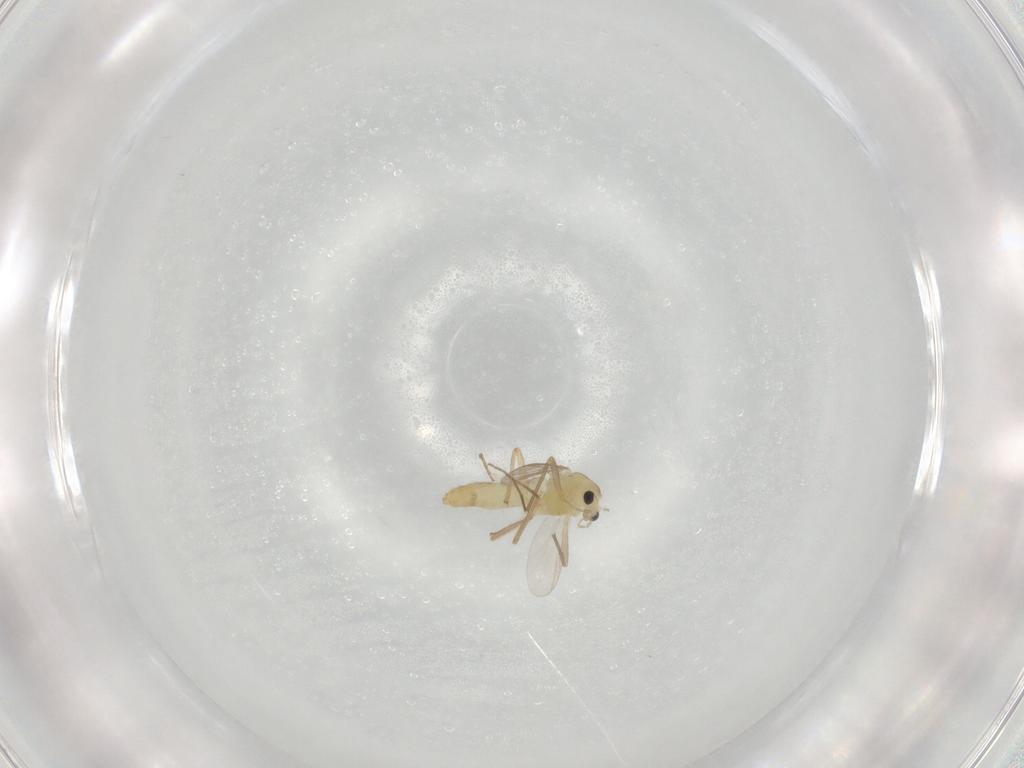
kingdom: Animalia
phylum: Arthropoda
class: Insecta
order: Diptera
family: Chironomidae
